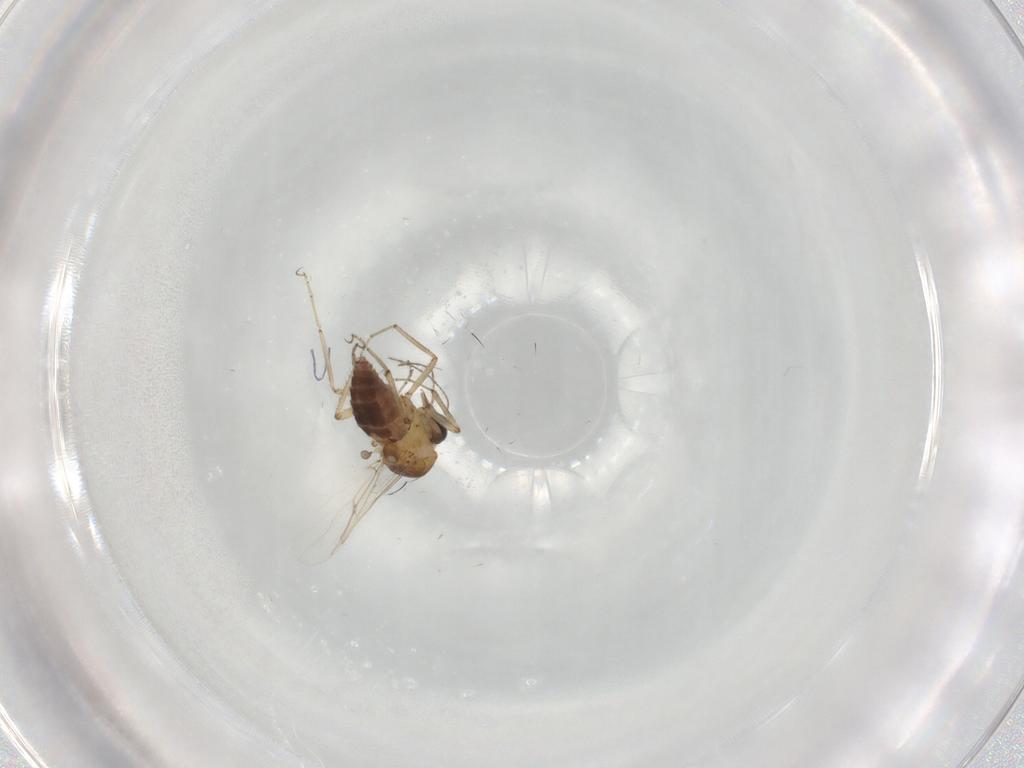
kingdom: Animalia
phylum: Arthropoda
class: Insecta
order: Diptera
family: Ceratopogonidae
